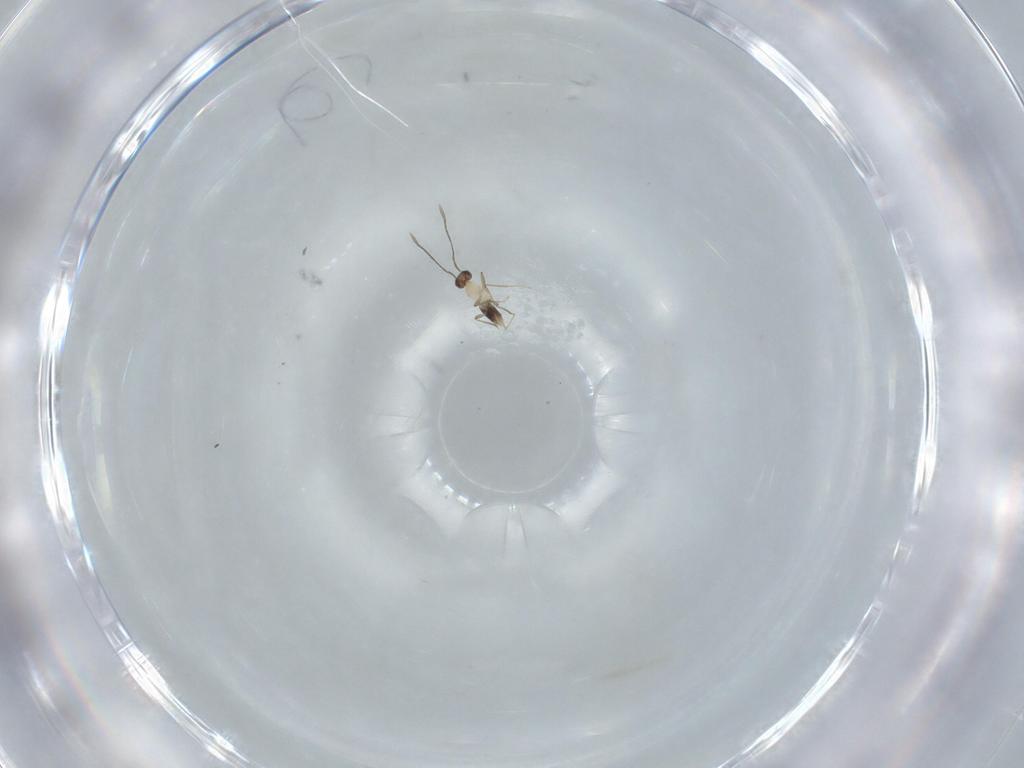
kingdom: Animalia
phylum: Arthropoda
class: Insecta
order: Hymenoptera
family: Mymaridae
